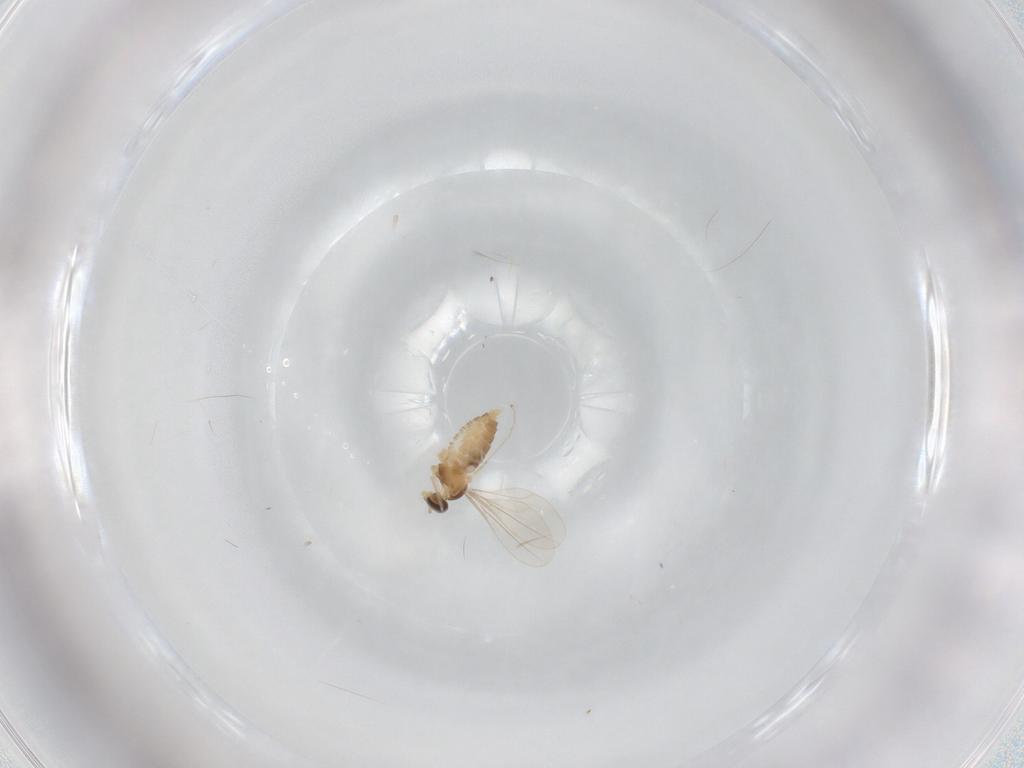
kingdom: Animalia
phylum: Arthropoda
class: Insecta
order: Diptera
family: Cecidomyiidae
